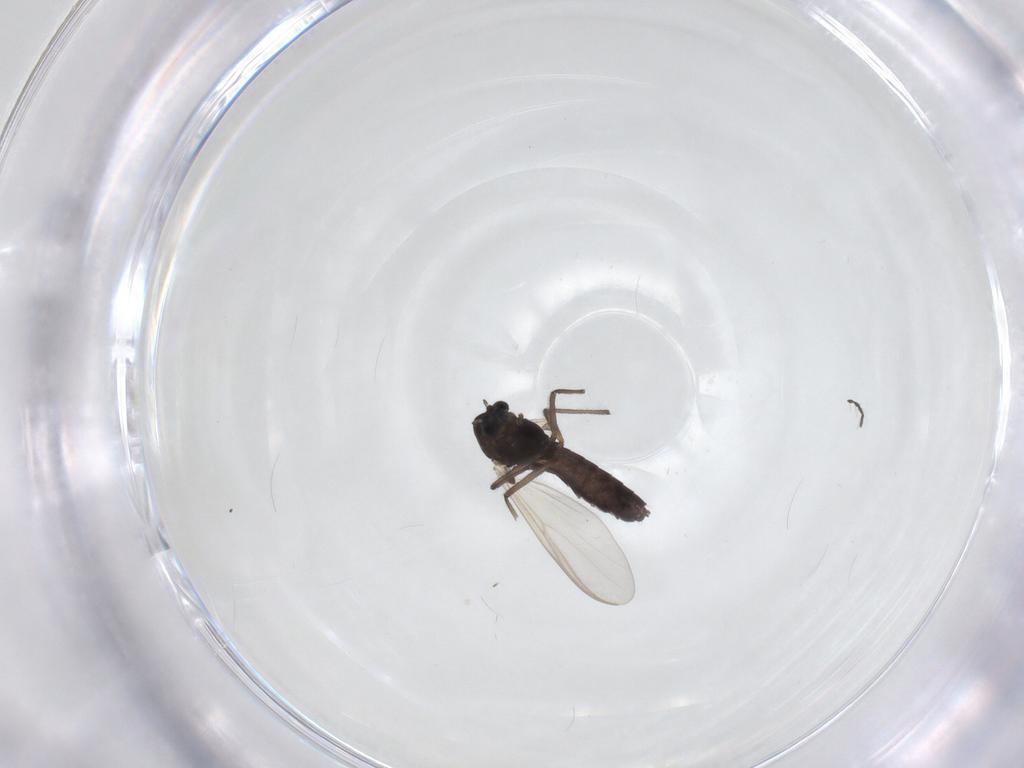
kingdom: Animalia
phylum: Arthropoda
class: Insecta
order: Diptera
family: Chironomidae
